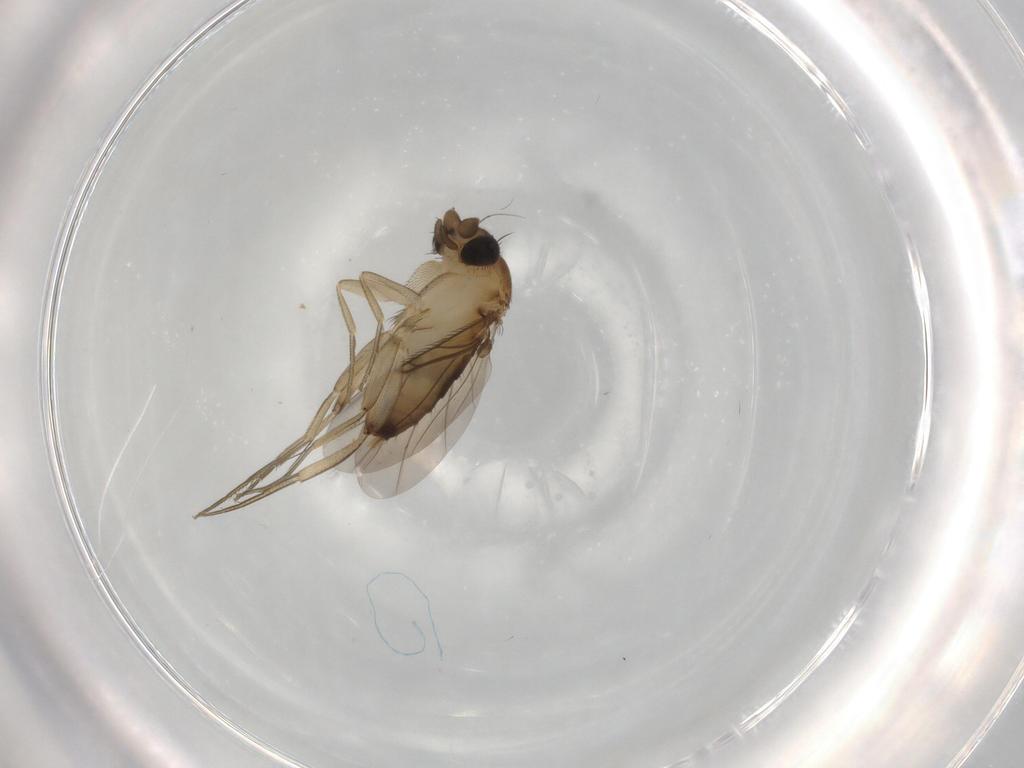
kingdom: Animalia
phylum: Arthropoda
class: Insecta
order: Diptera
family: Phoridae
